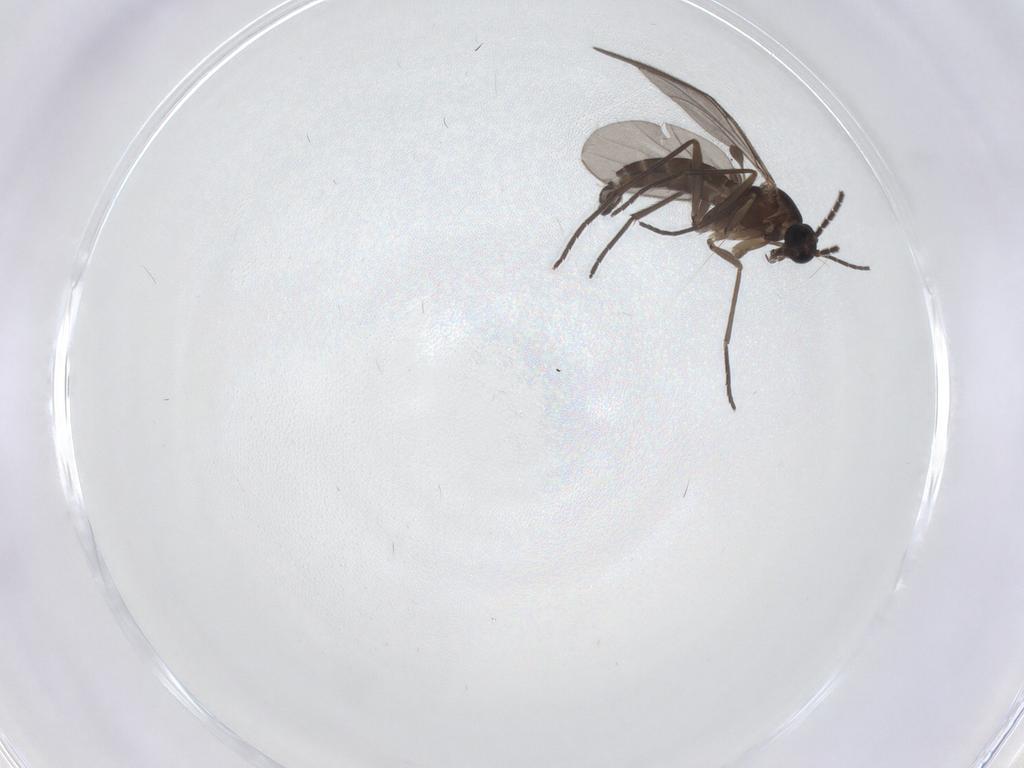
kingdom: Animalia
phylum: Arthropoda
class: Insecta
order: Diptera
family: Sciaridae
